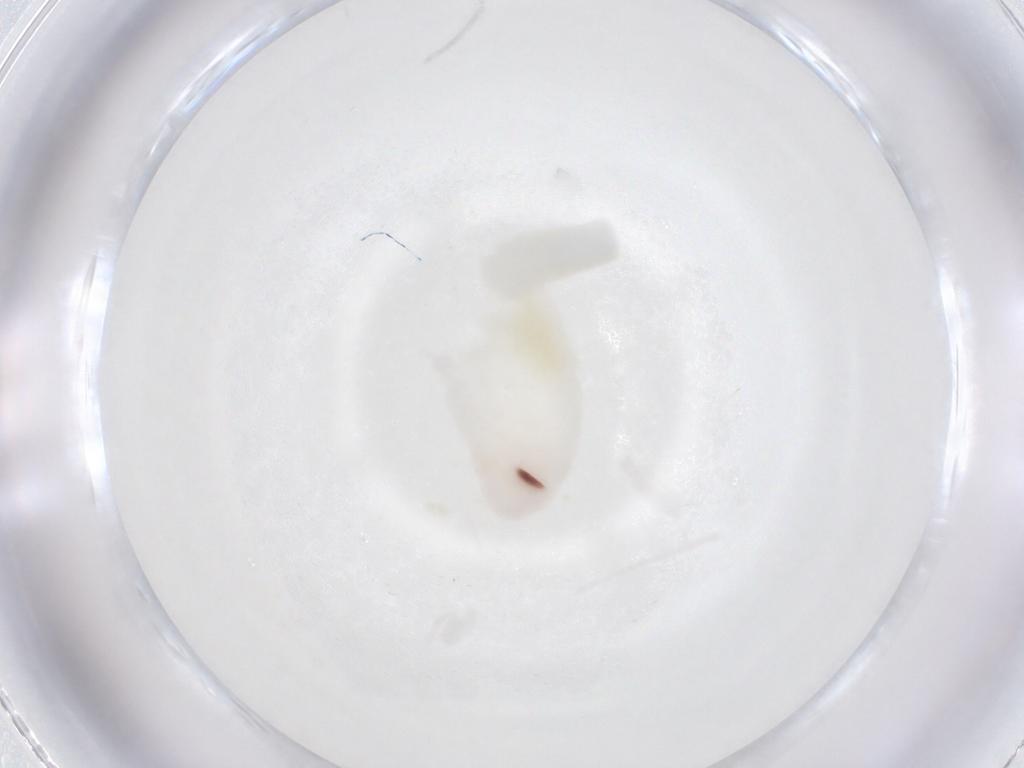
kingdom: Animalia
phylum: Arthropoda
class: Insecta
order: Blattodea
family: Ectobiidae
